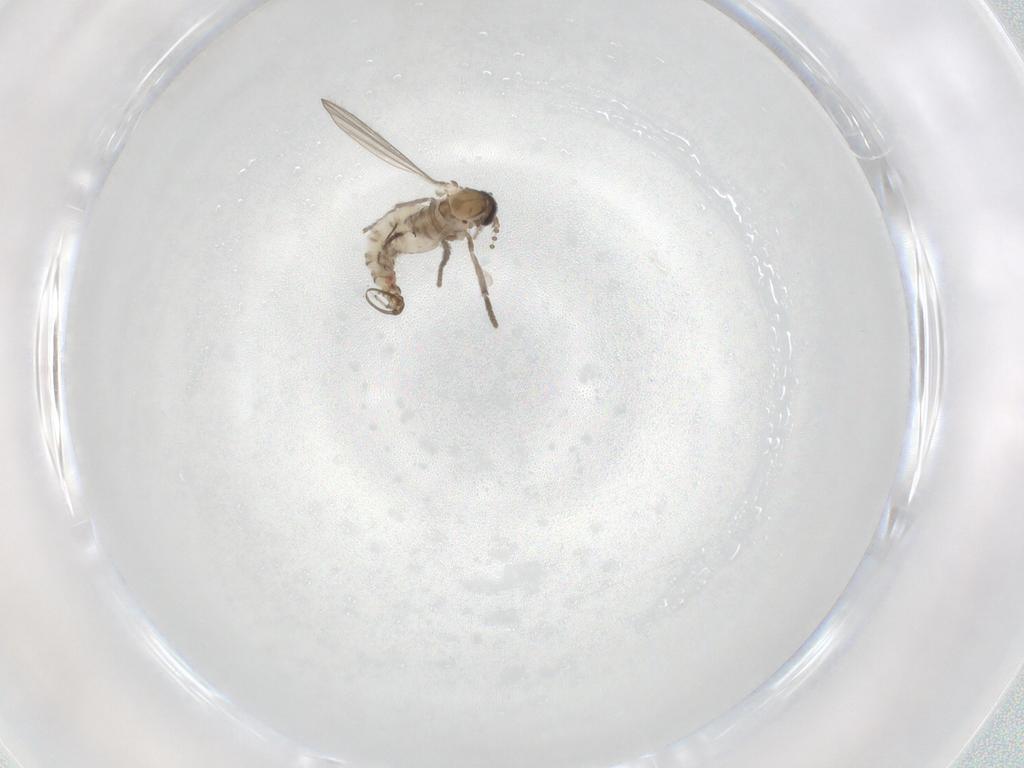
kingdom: Animalia
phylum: Arthropoda
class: Insecta
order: Diptera
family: Psychodidae
